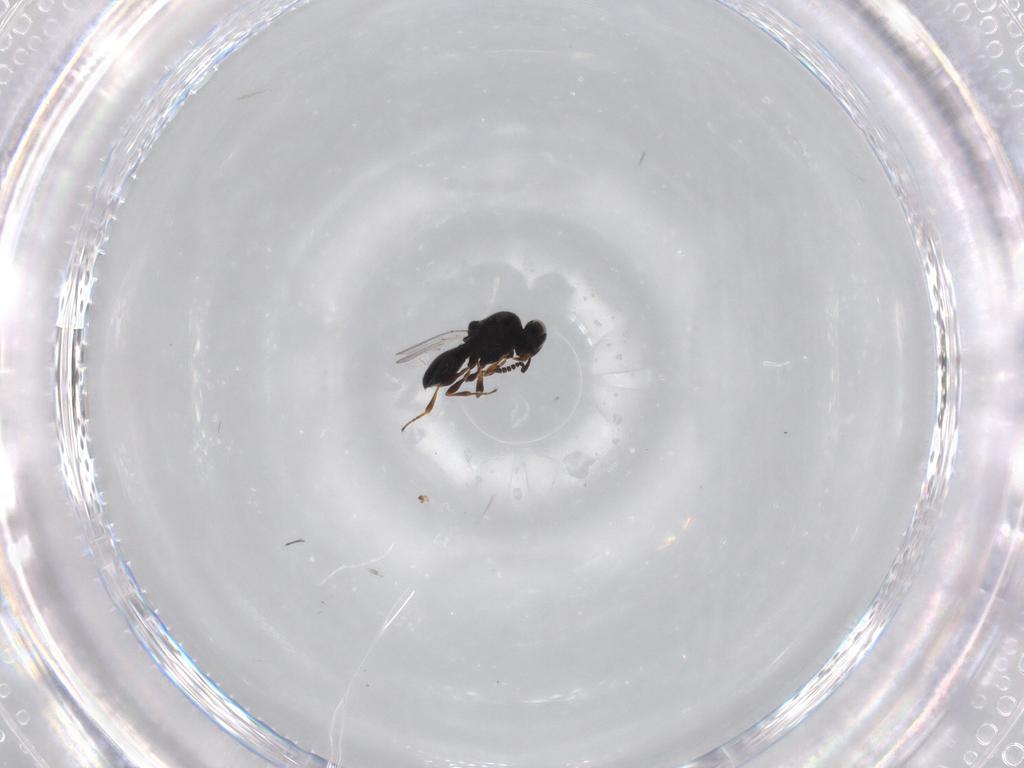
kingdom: Animalia
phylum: Arthropoda
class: Insecta
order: Hymenoptera
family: Platygastridae
